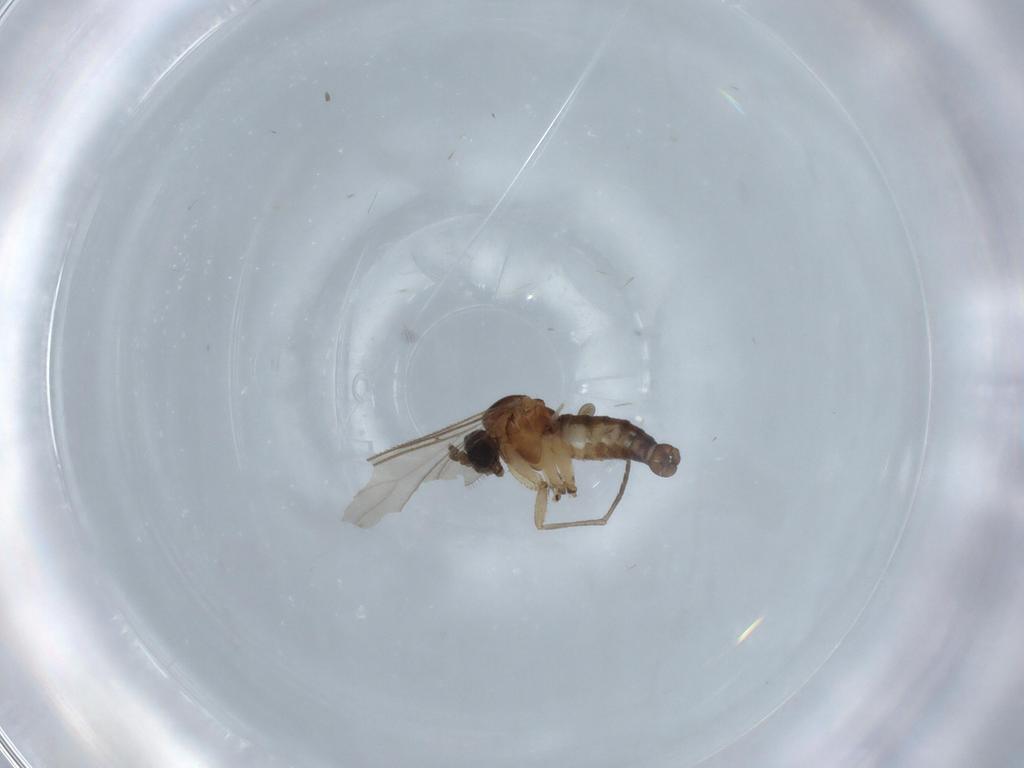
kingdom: Animalia
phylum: Arthropoda
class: Insecta
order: Diptera
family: Sciaridae
